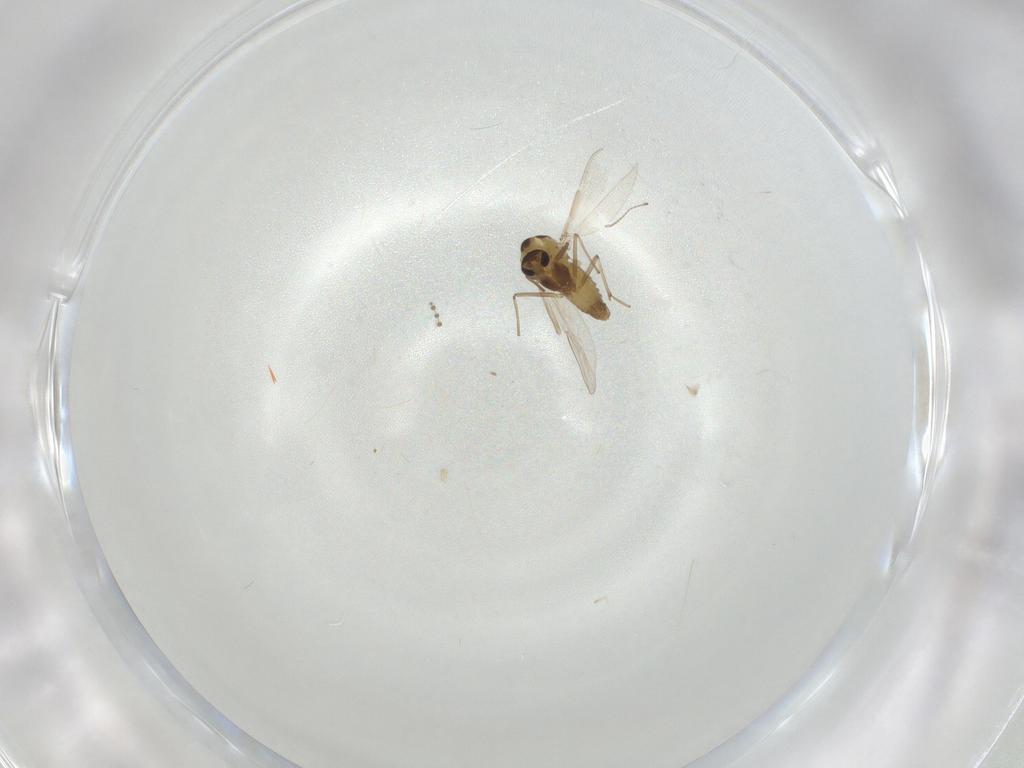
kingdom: Animalia
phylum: Arthropoda
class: Insecta
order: Diptera
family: Chironomidae
